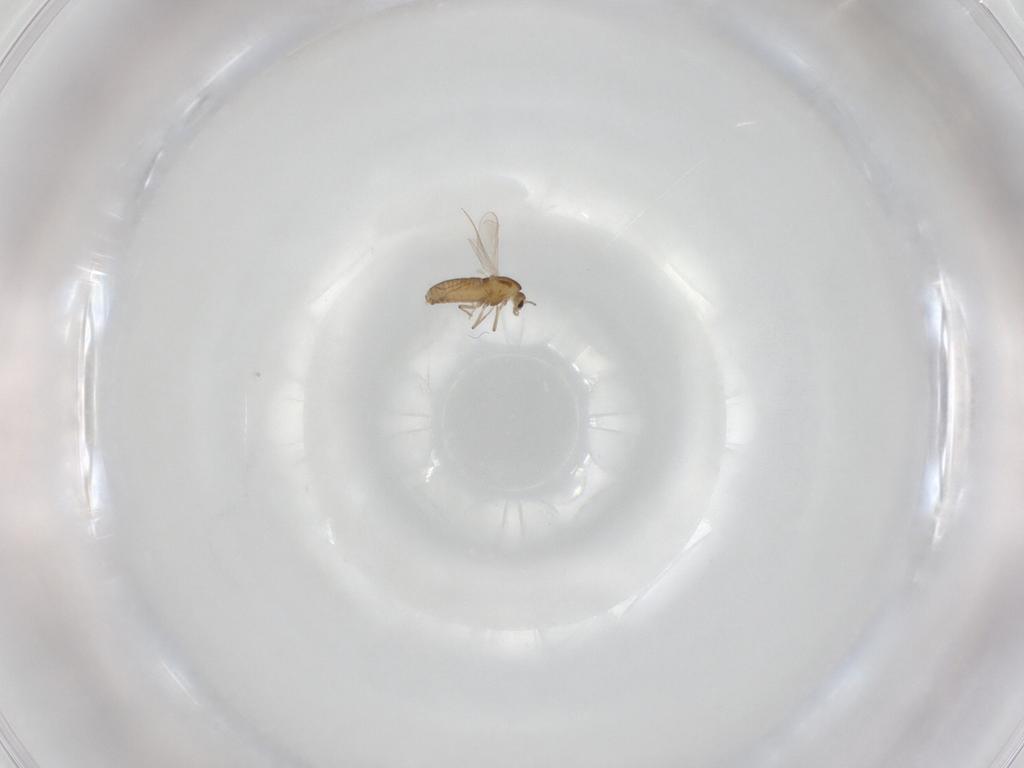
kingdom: Animalia
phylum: Arthropoda
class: Insecta
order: Diptera
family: Chironomidae
